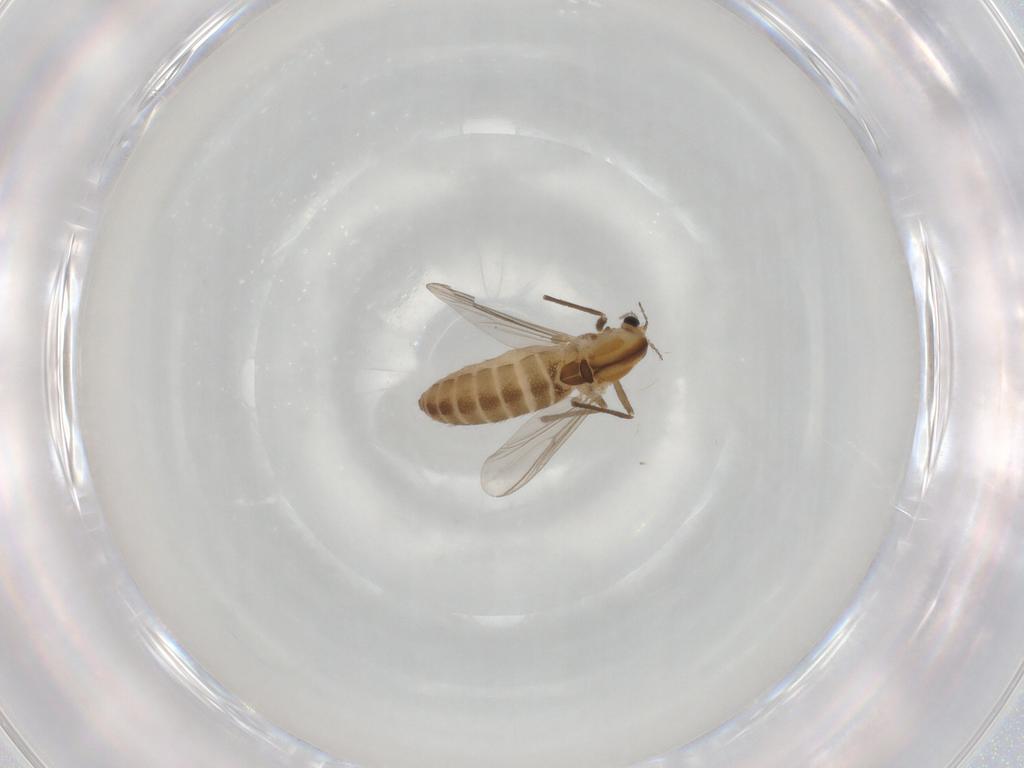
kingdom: Animalia
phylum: Arthropoda
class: Insecta
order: Diptera
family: Chironomidae
